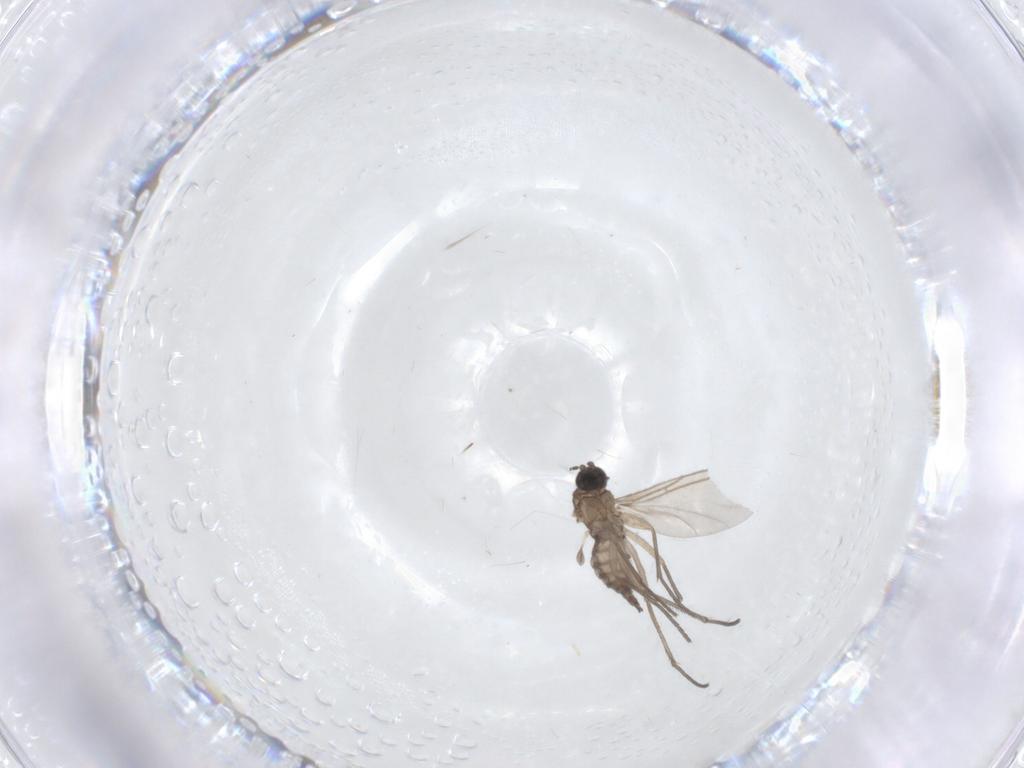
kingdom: Animalia
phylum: Arthropoda
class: Insecta
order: Diptera
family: Sciaridae
